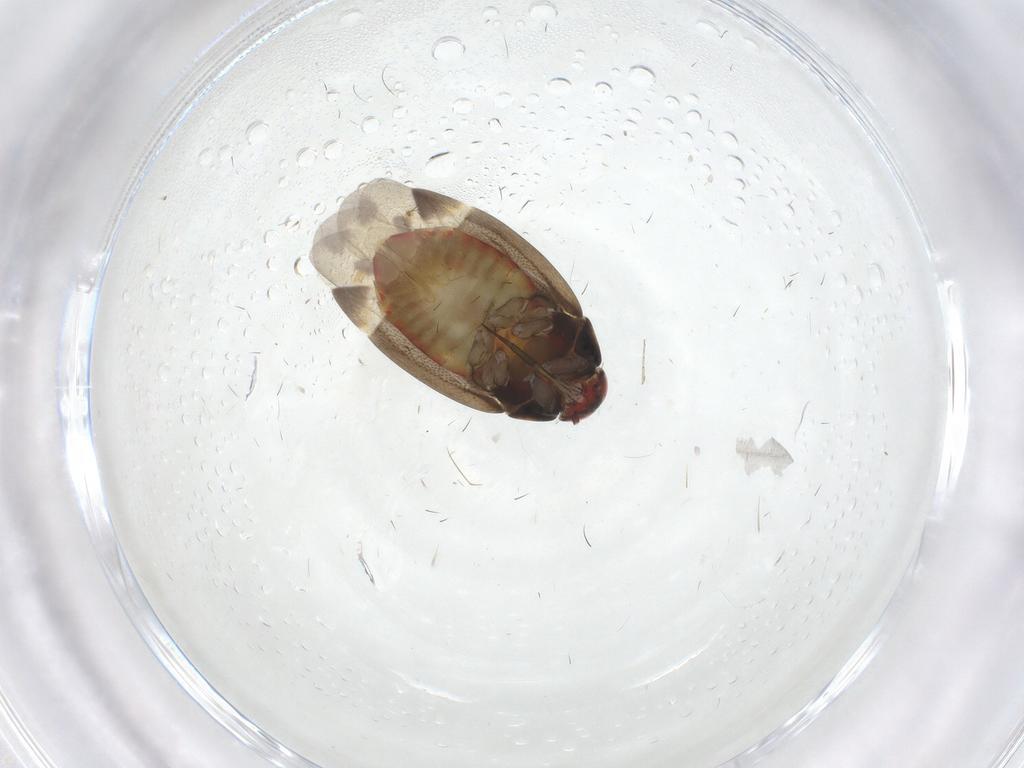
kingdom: Animalia
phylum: Arthropoda
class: Insecta
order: Hemiptera
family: Miridae
